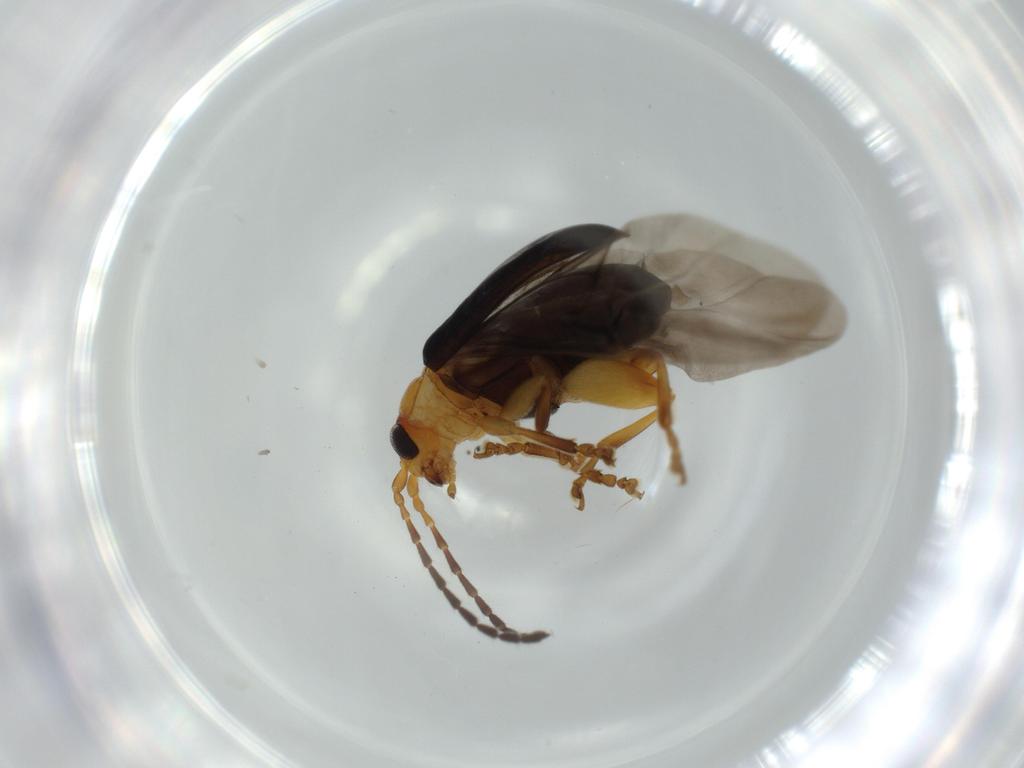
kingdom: Animalia
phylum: Arthropoda
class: Insecta
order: Coleoptera
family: Chrysomelidae
